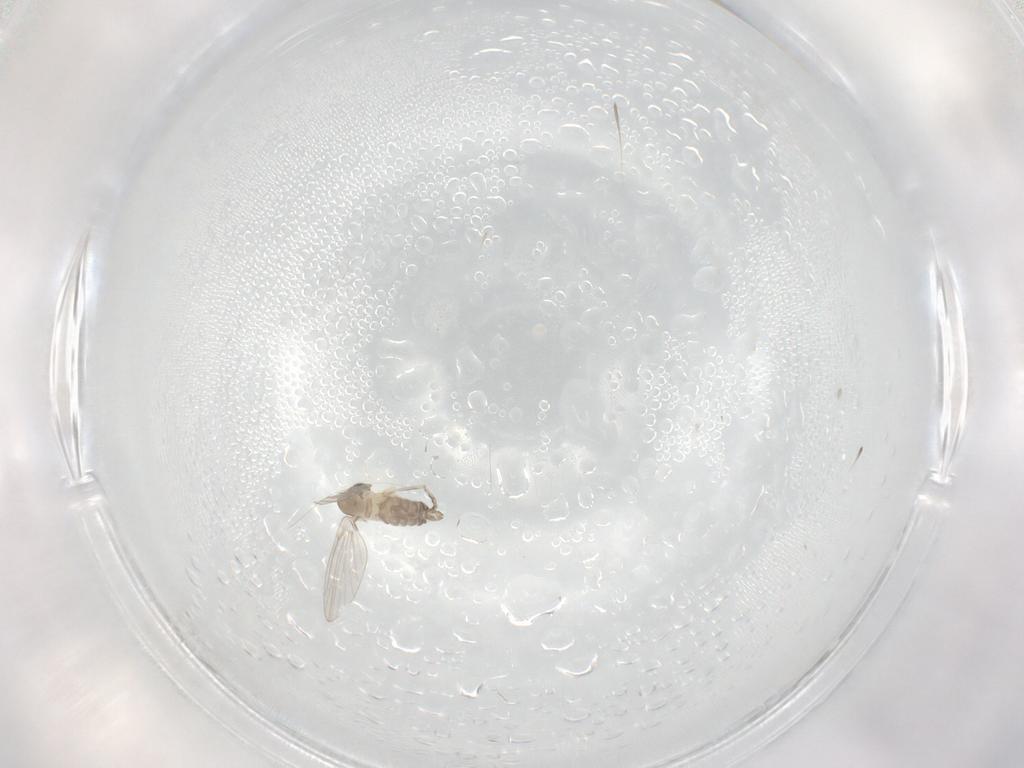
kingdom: Animalia
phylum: Arthropoda
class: Insecta
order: Diptera
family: Psychodidae
